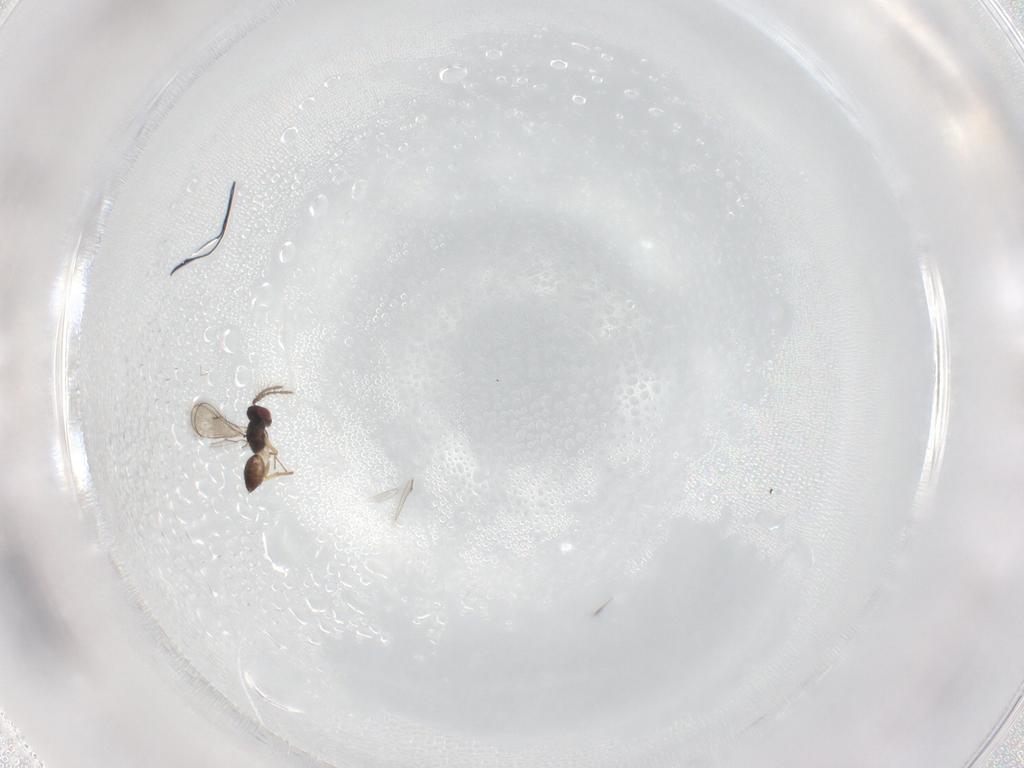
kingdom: Animalia
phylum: Arthropoda
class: Insecta
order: Hymenoptera
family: Eulophidae
